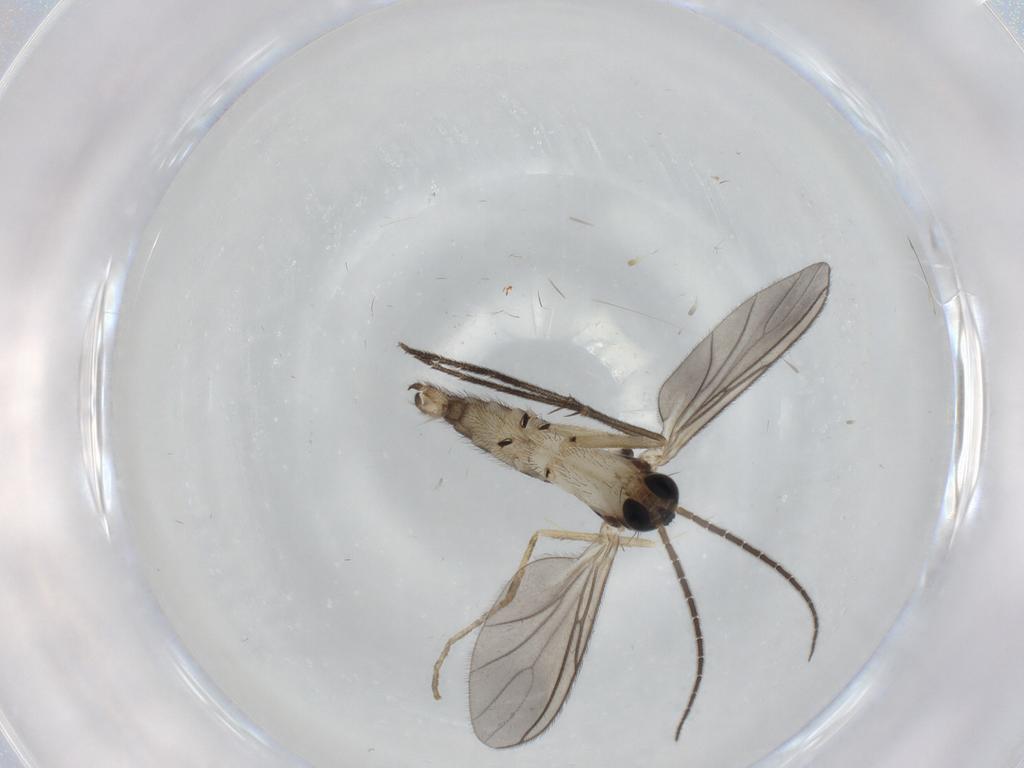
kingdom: Animalia
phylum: Arthropoda
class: Insecta
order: Diptera
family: Sciaridae
